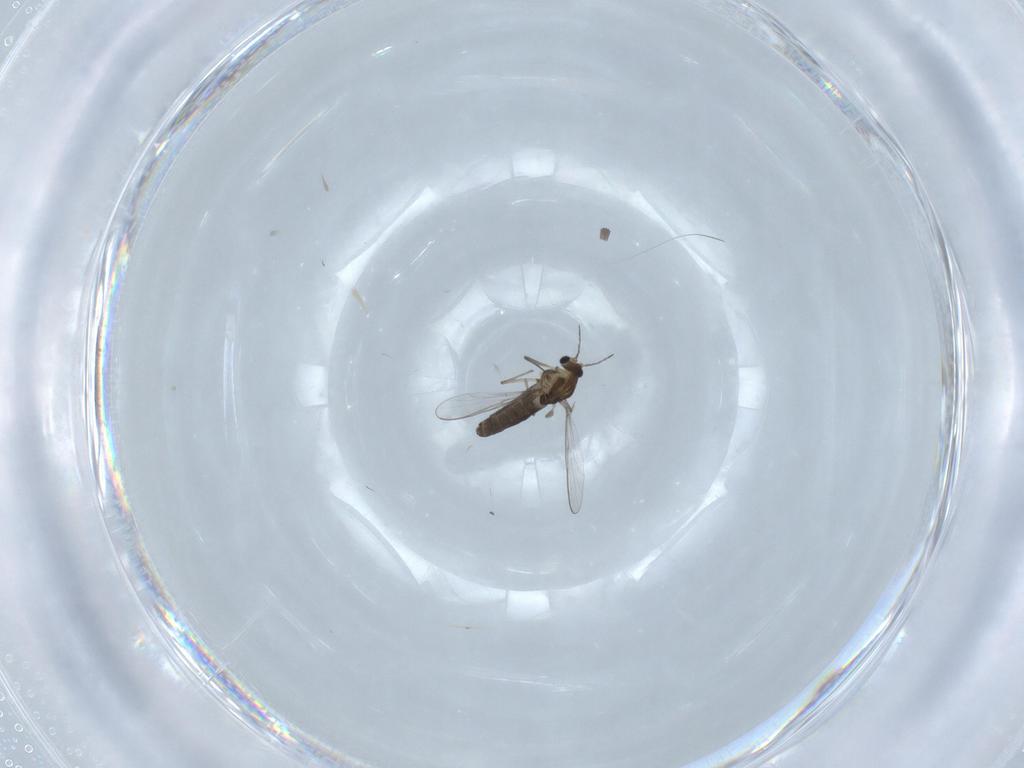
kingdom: Animalia
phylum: Arthropoda
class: Insecta
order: Diptera
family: Chironomidae
